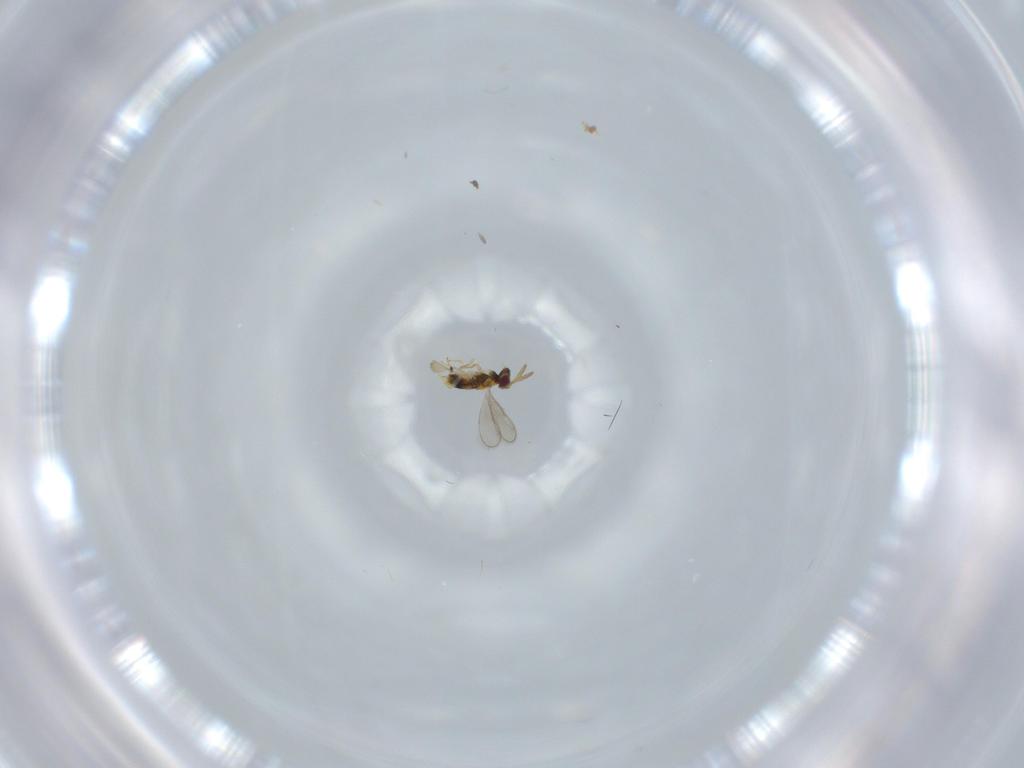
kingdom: Animalia
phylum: Arthropoda
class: Insecta
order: Hymenoptera
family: Aphelinidae
